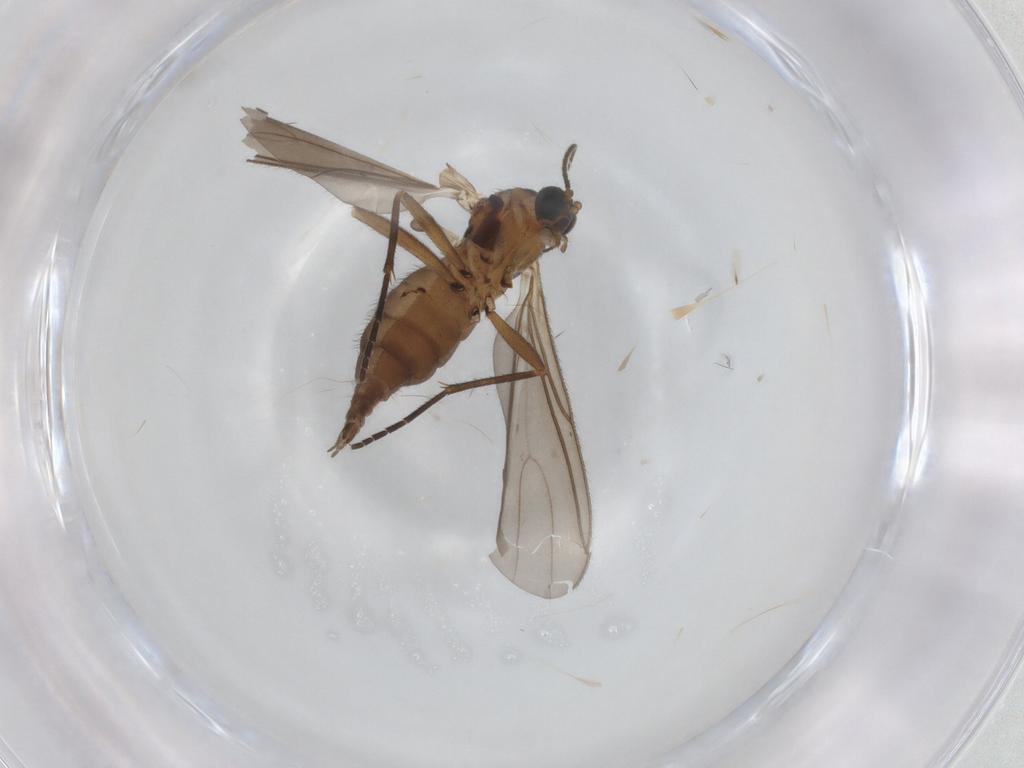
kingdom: Animalia
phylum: Arthropoda
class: Insecta
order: Diptera
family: Sciaridae
